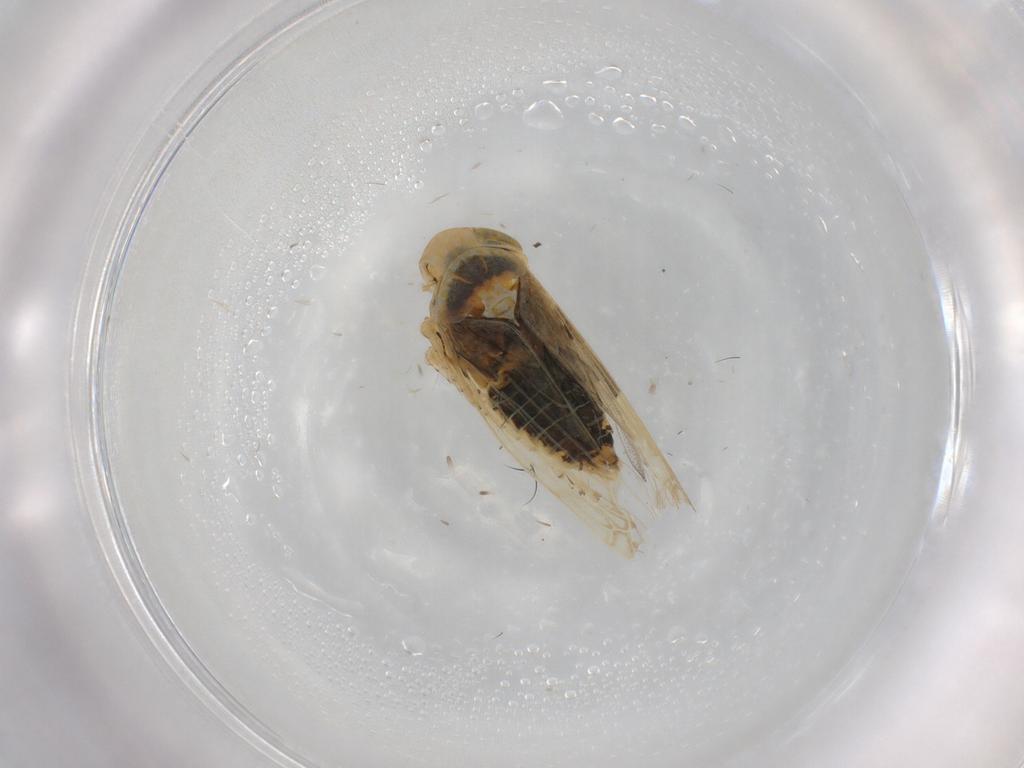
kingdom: Animalia
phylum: Arthropoda
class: Insecta
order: Hemiptera
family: Cicadellidae
